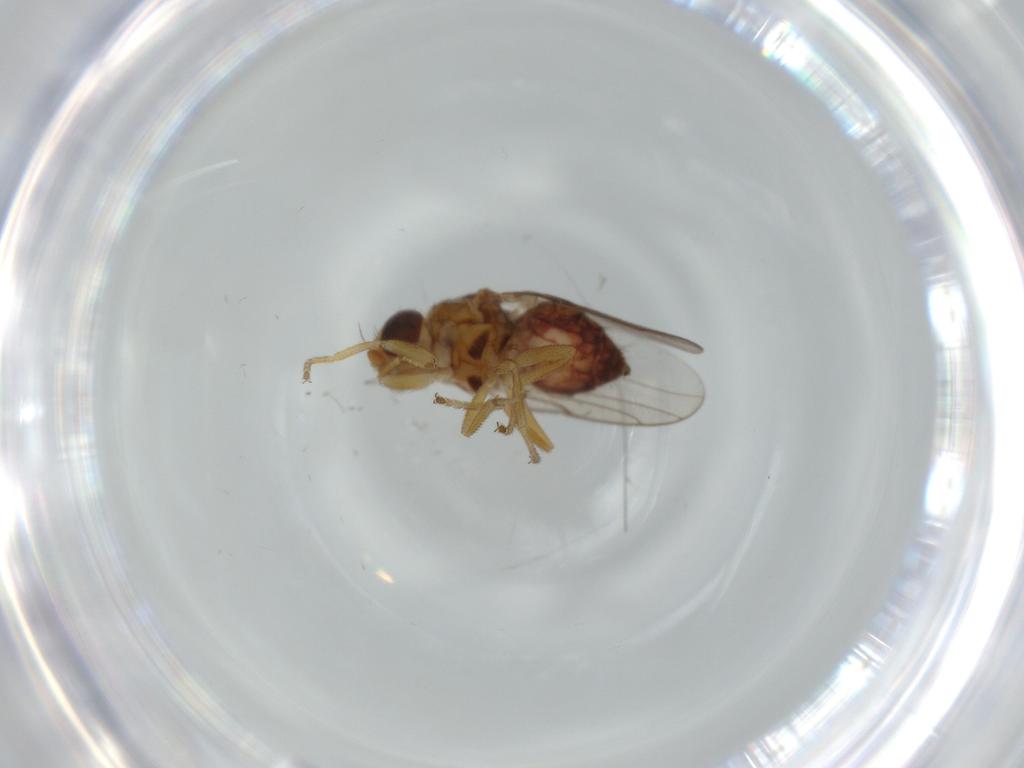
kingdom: Animalia
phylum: Arthropoda
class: Insecta
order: Diptera
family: Chloropidae
